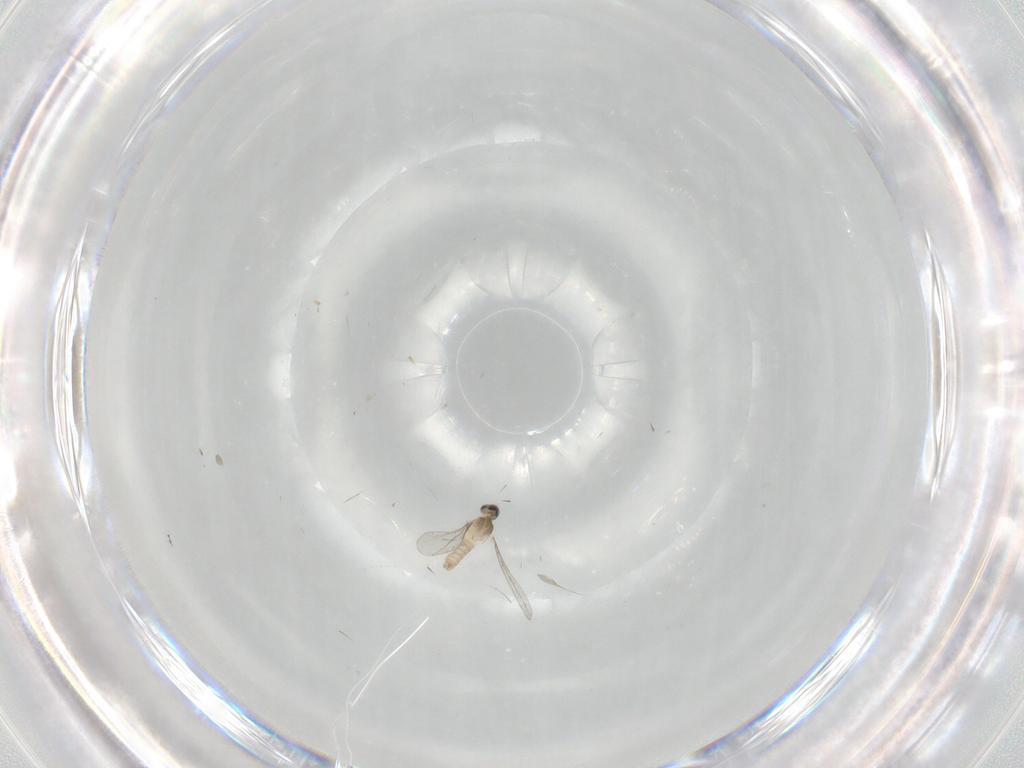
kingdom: Animalia
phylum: Arthropoda
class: Insecta
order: Diptera
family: Cecidomyiidae
